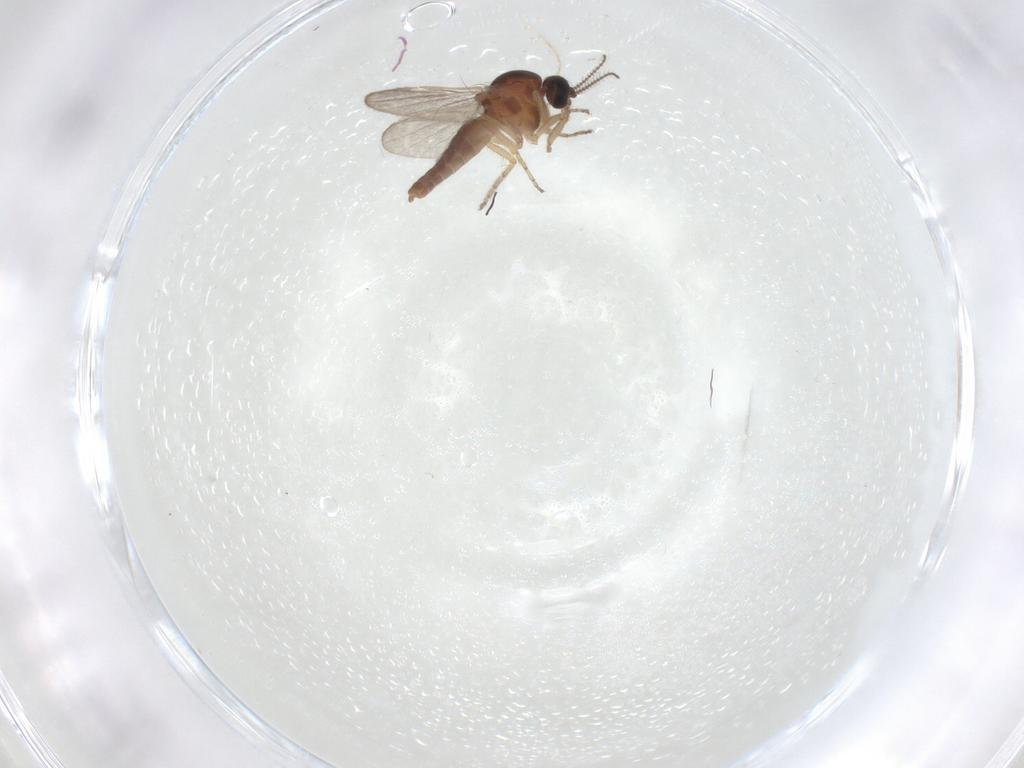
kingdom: Animalia
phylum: Arthropoda
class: Insecta
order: Diptera
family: Ceratopogonidae
